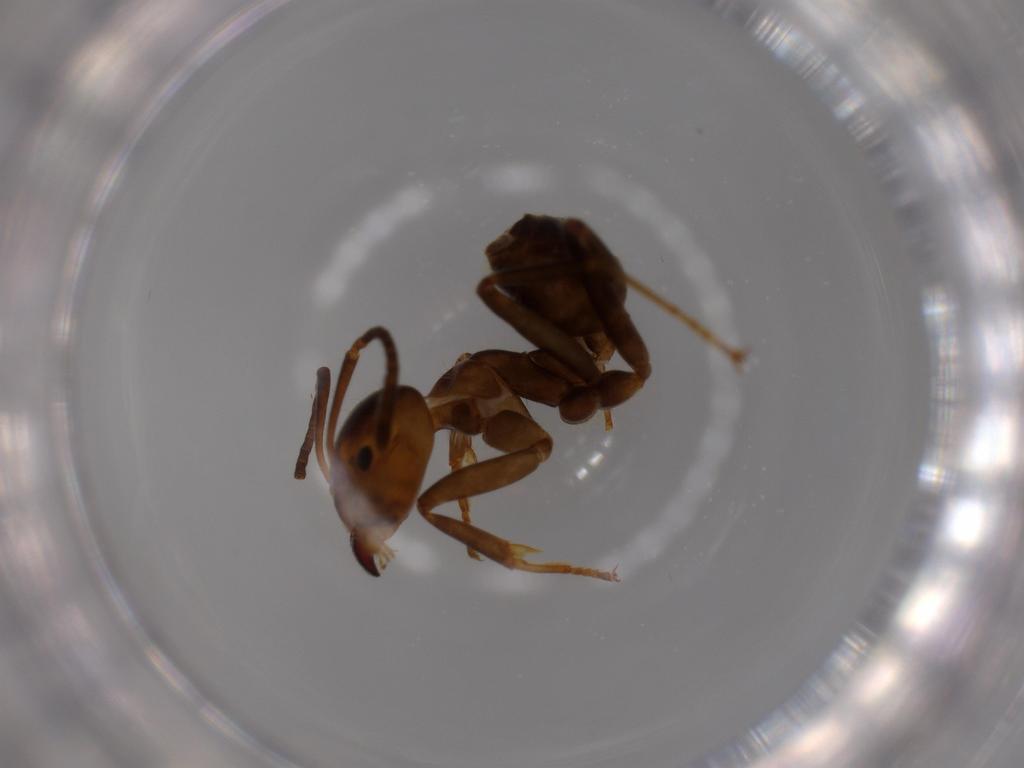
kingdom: Animalia
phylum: Arthropoda
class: Insecta
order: Hymenoptera
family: Formicidae
